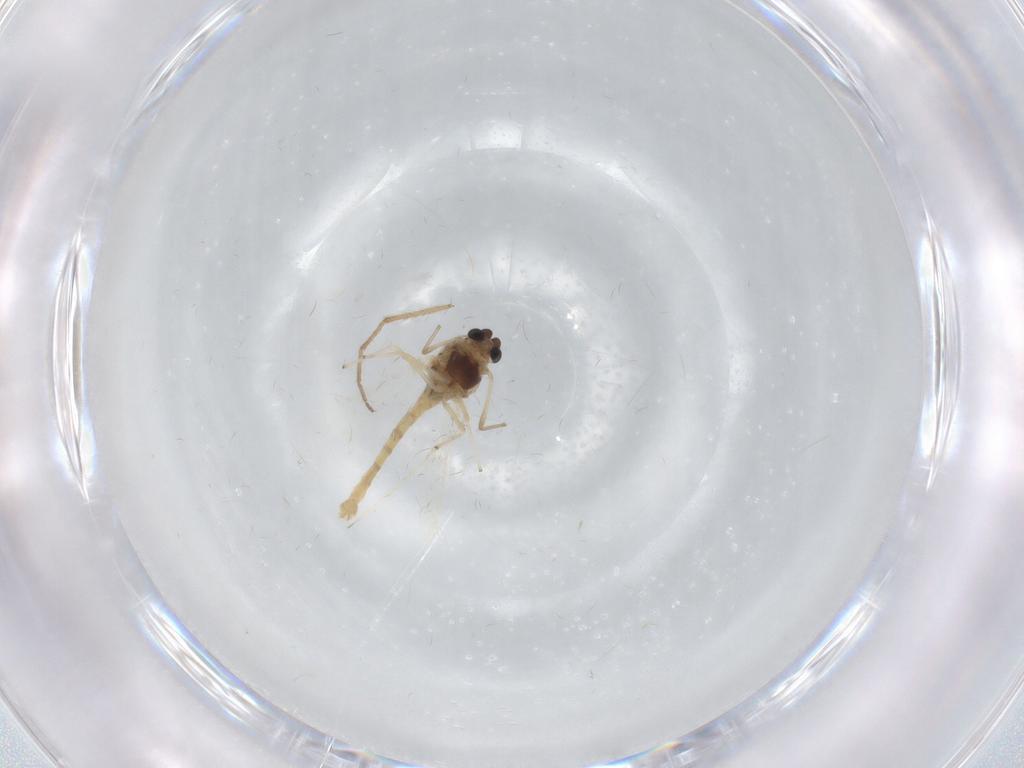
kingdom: Animalia
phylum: Arthropoda
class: Insecta
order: Diptera
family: Chironomidae
